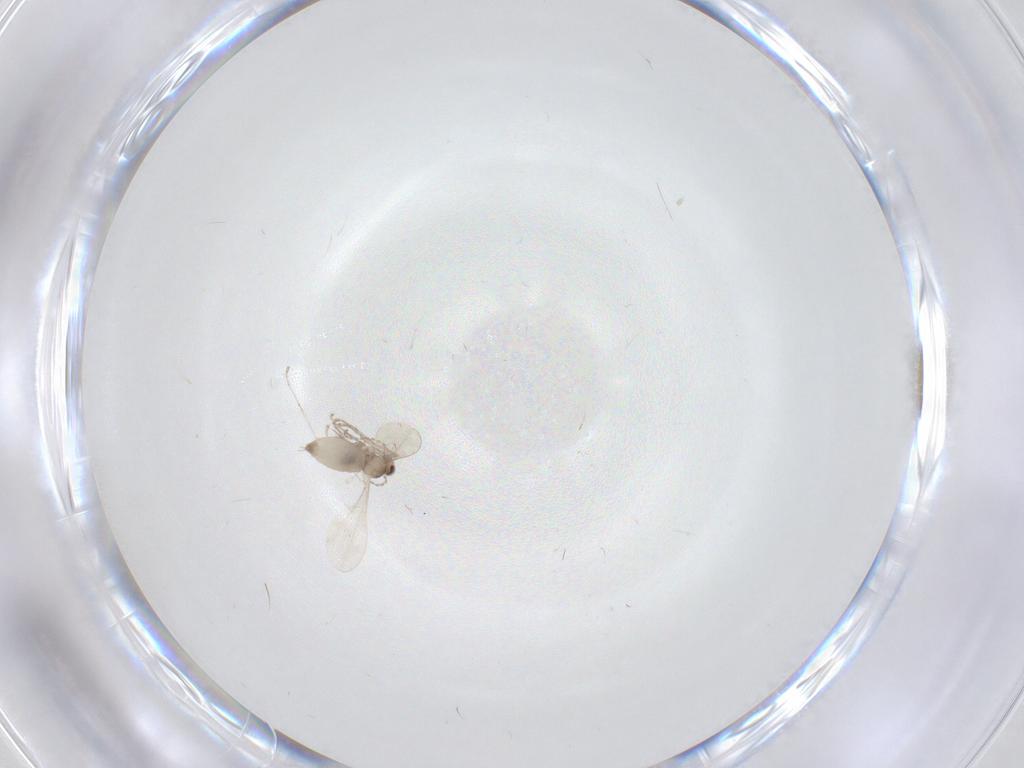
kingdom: Animalia
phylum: Arthropoda
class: Insecta
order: Diptera
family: Cecidomyiidae
